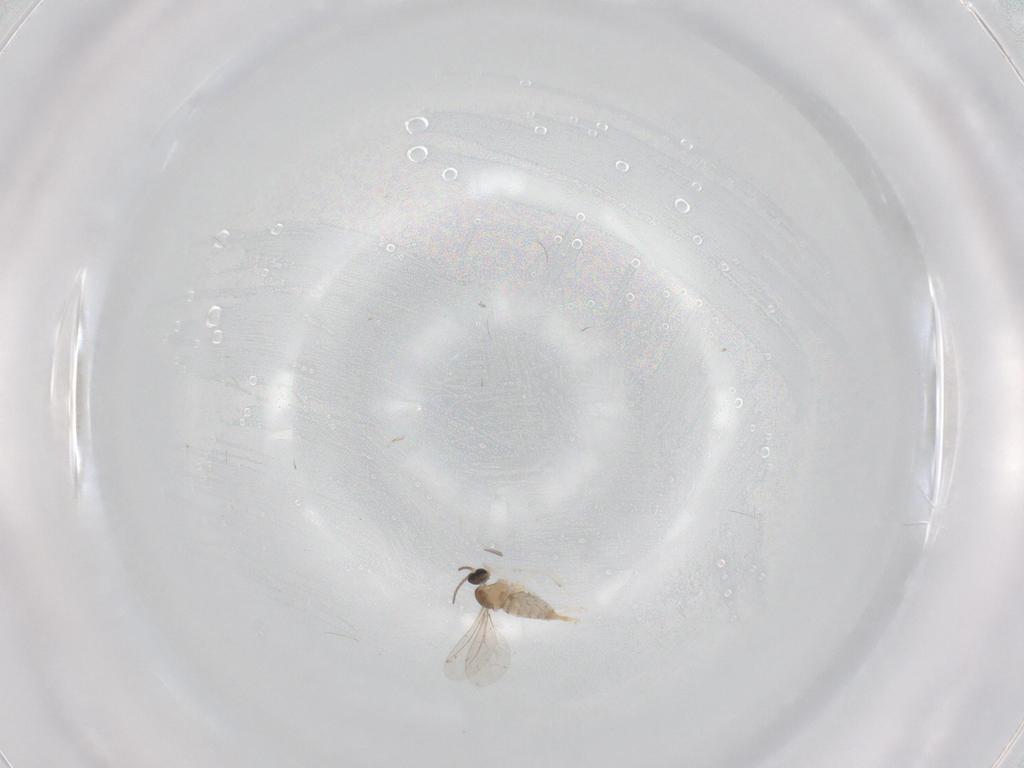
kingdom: Animalia
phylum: Arthropoda
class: Insecta
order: Diptera
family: Cecidomyiidae
